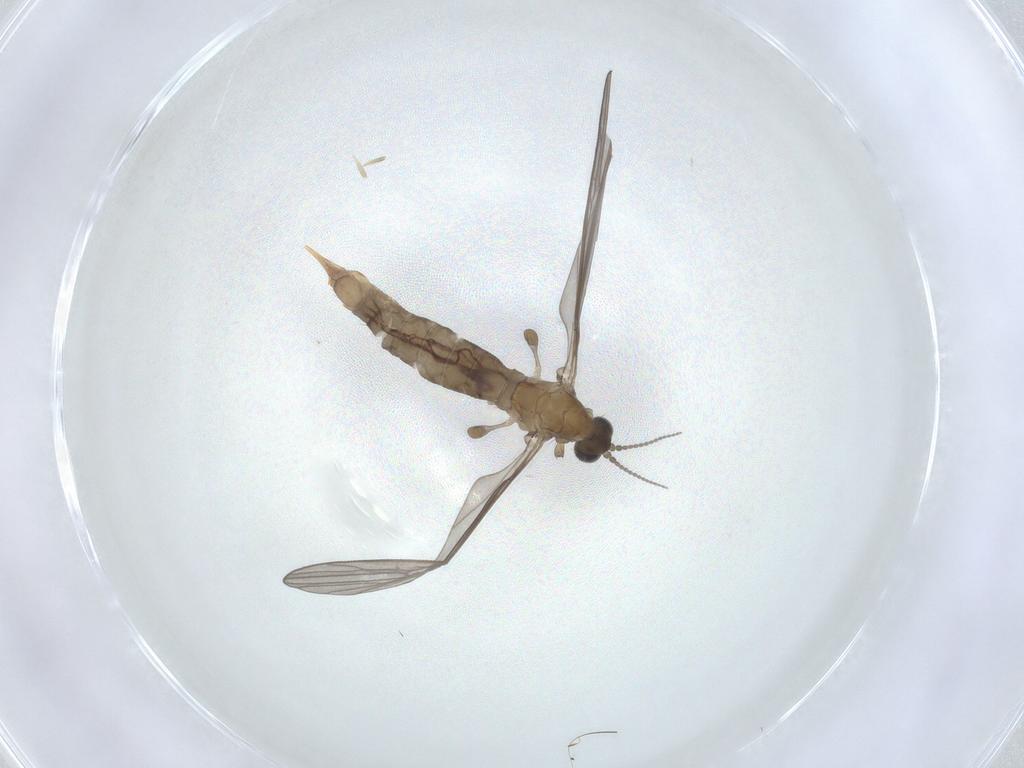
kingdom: Animalia
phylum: Arthropoda
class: Insecta
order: Diptera
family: Limoniidae
